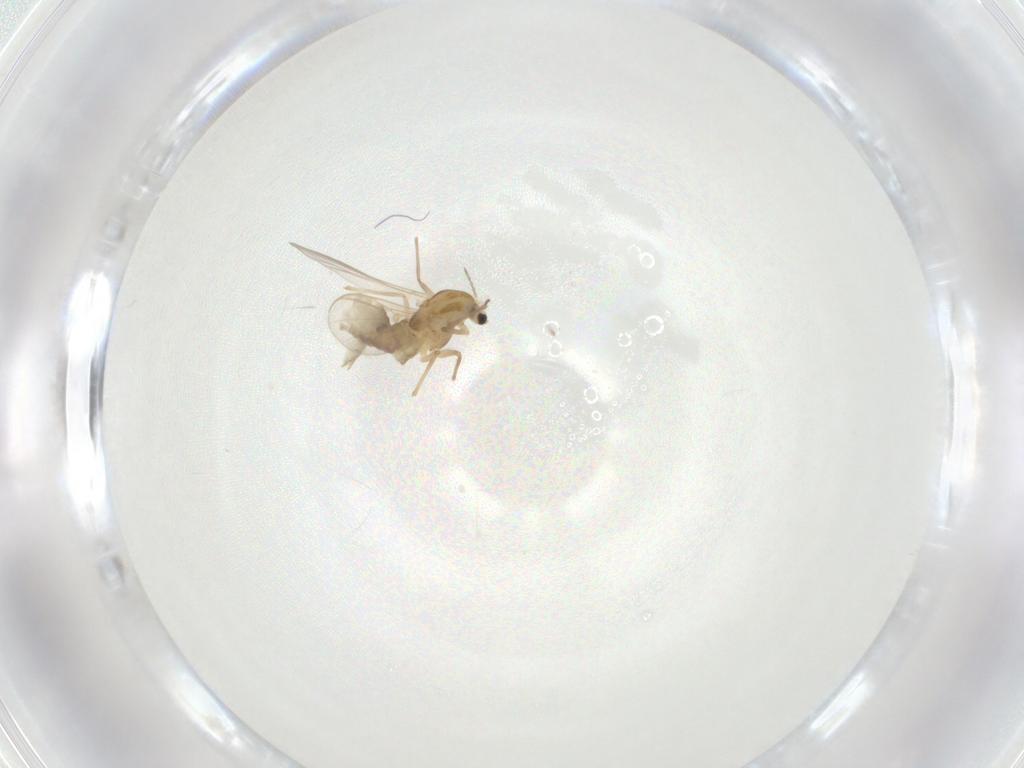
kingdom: Animalia
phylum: Arthropoda
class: Insecta
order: Diptera
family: Chironomidae
